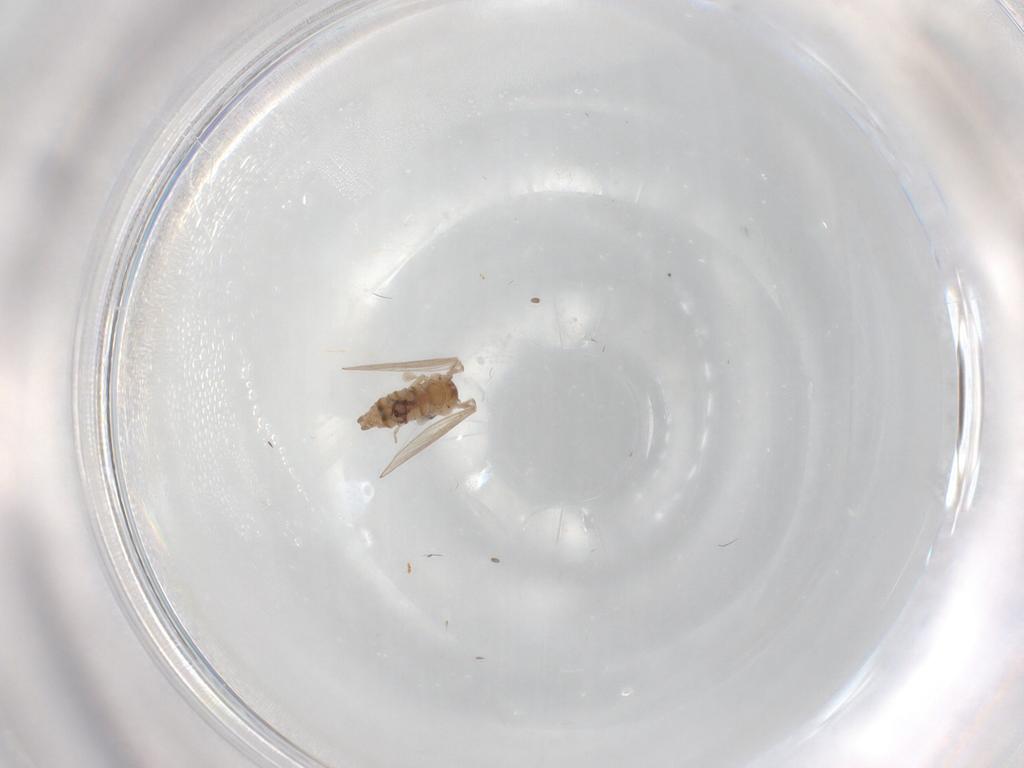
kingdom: Animalia
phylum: Arthropoda
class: Insecta
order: Diptera
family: Psychodidae
